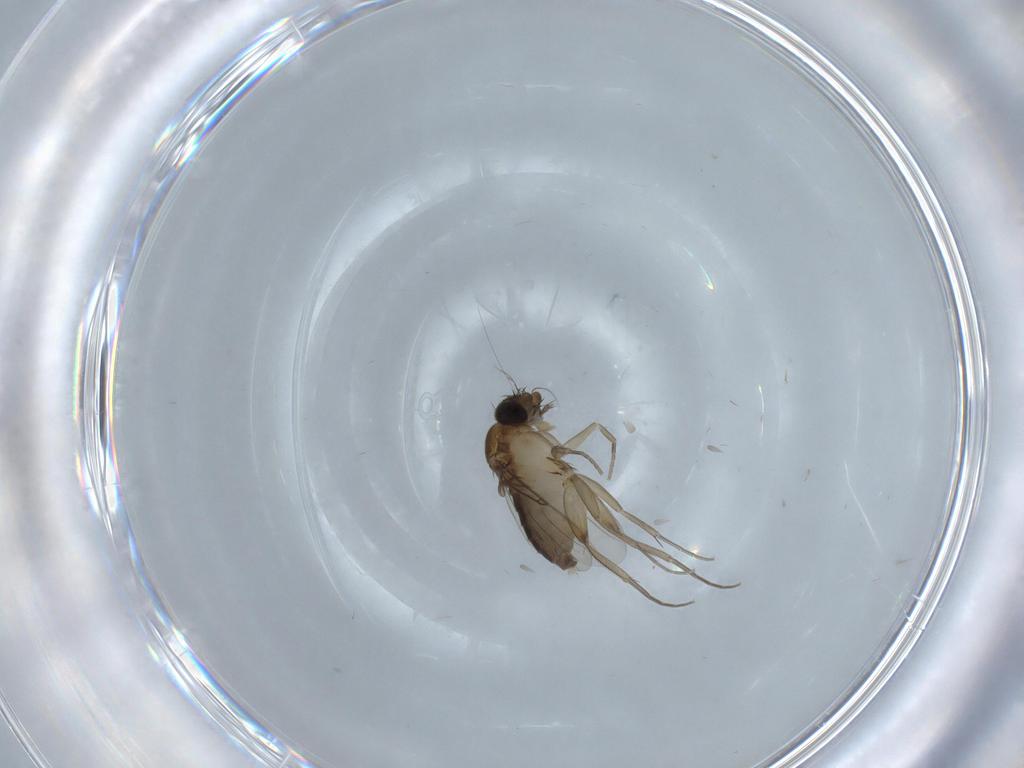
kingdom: Animalia
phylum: Arthropoda
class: Insecta
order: Diptera
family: Phoridae
